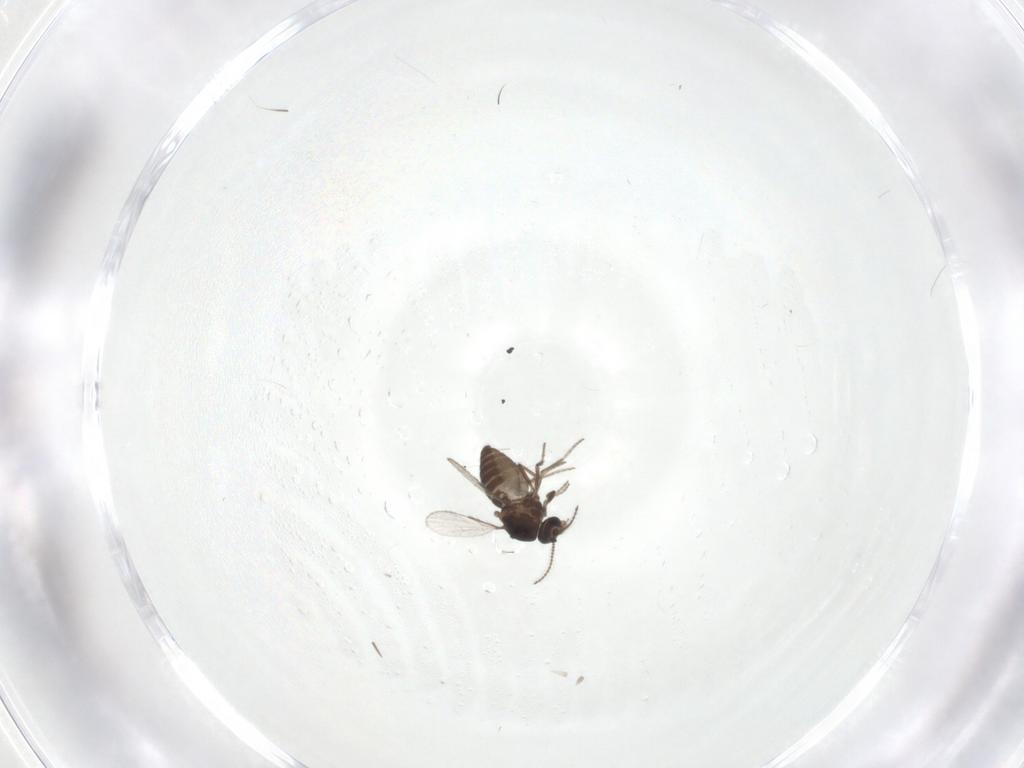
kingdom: Animalia
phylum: Arthropoda
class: Insecta
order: Diptera
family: Ceratopogonidae
